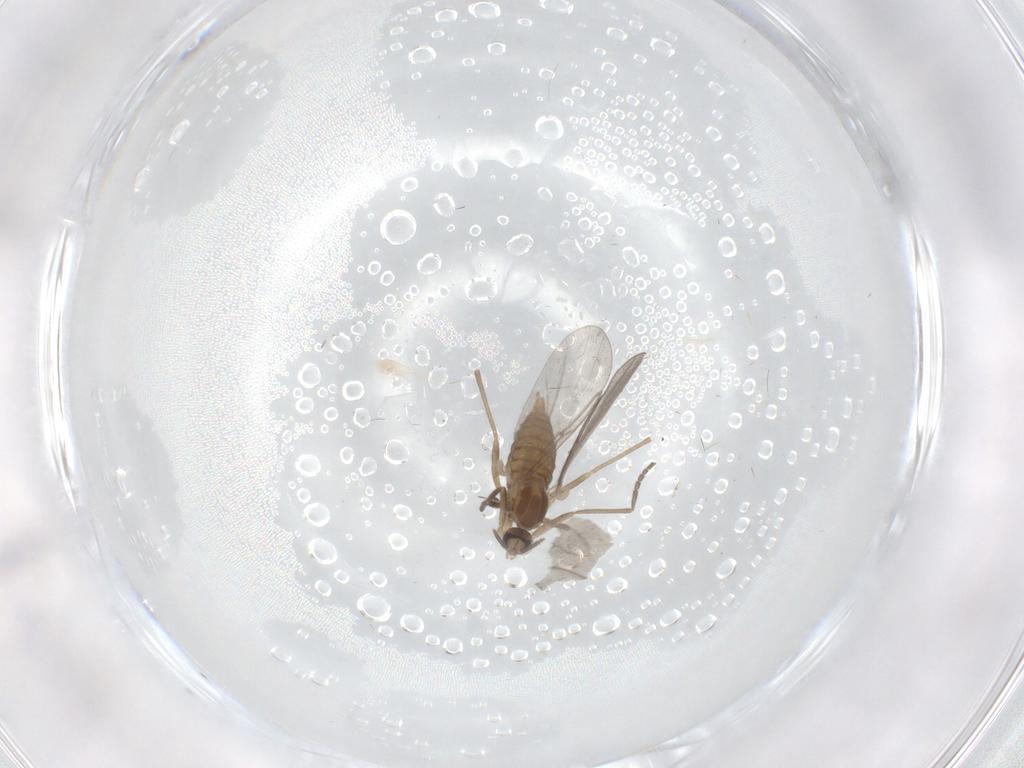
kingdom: Animalia
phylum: Arthropoda
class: Insecta
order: Diptera
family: Cecidomyiidae
